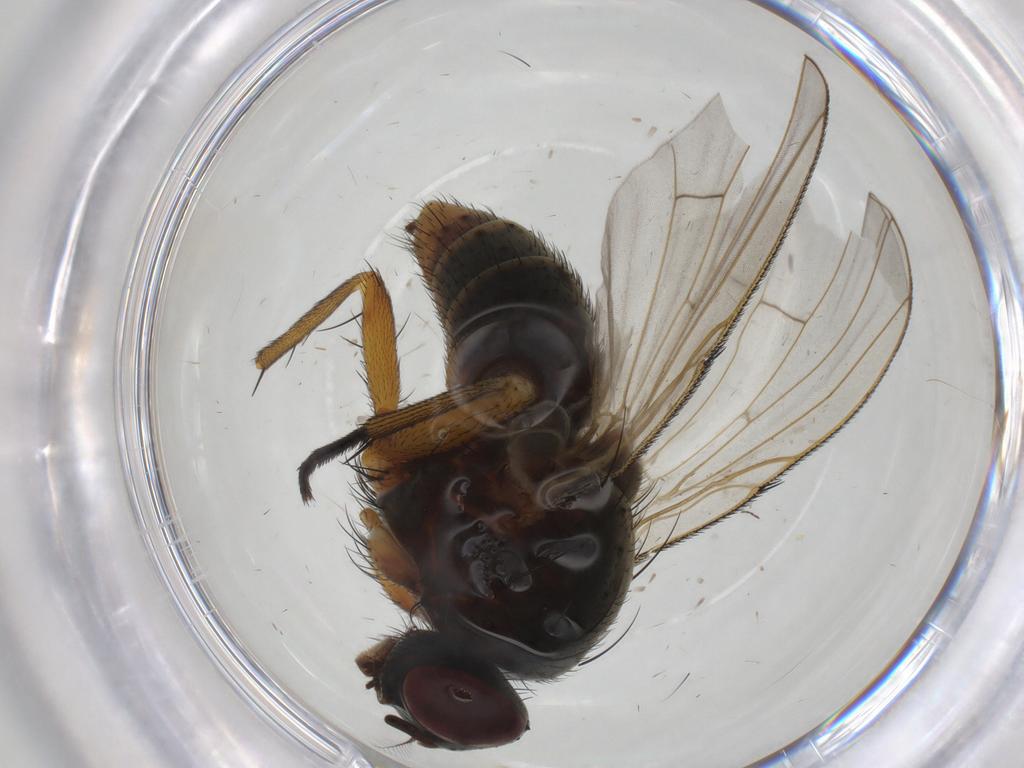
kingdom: Animalia
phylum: Arthropoda
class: Insecta
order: Diptera
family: Muscidae
